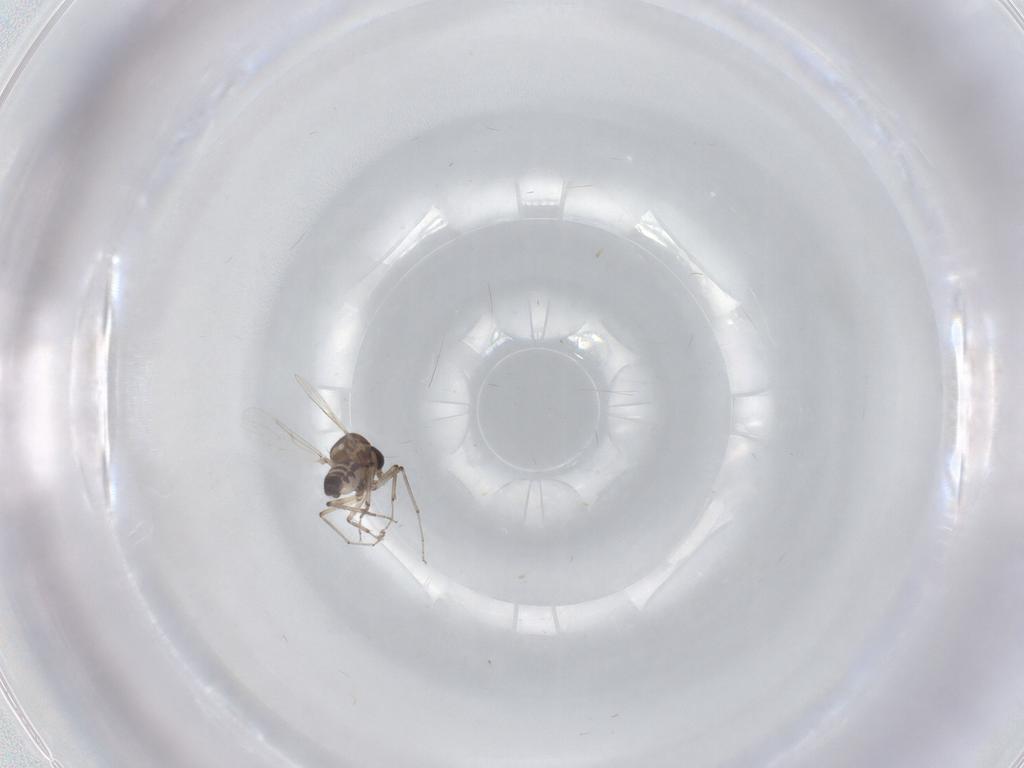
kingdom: Animalia
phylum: Arthropoda
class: Insecta
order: Diptera
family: Ceratopogonidae
